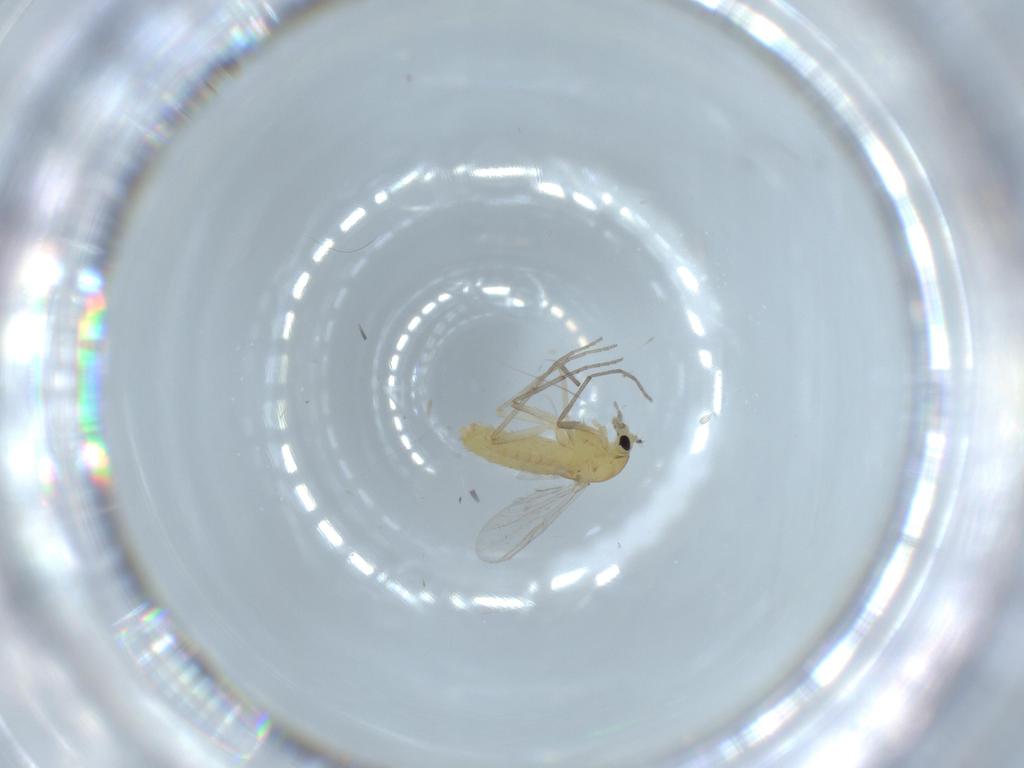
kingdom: Animalia
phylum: Arthropoda
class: Insecta
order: Diptera
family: Chironomidae
